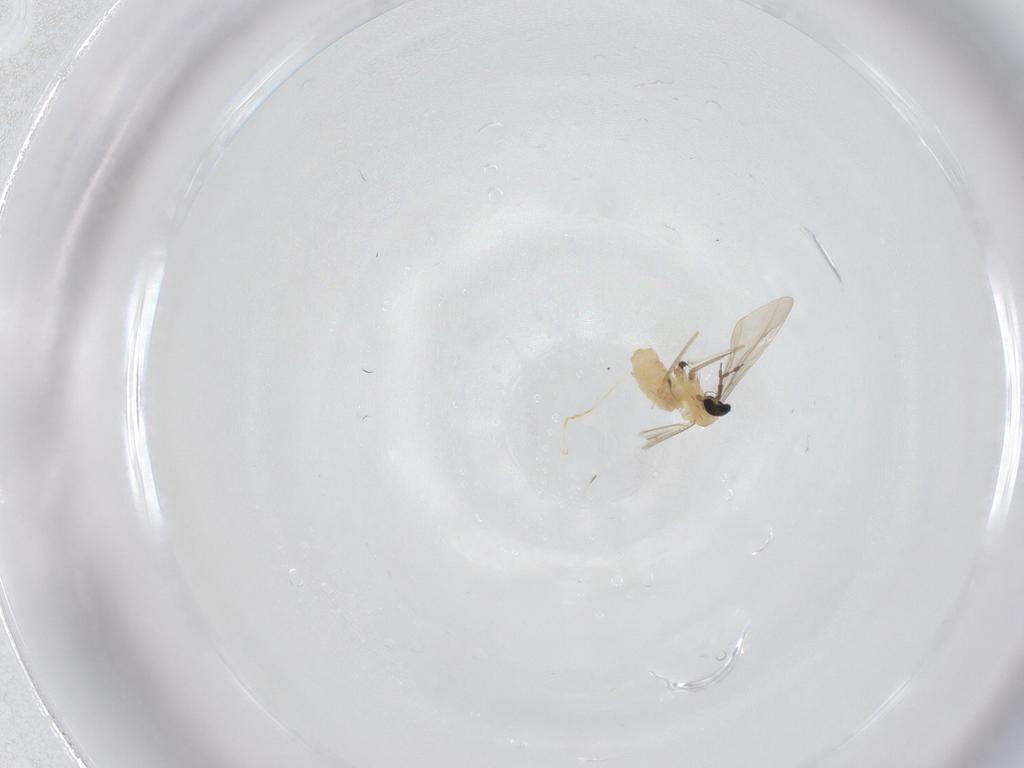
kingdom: Animalia
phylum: Arthropoda
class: Insecta
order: Diptera
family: Cecidomyiidae
